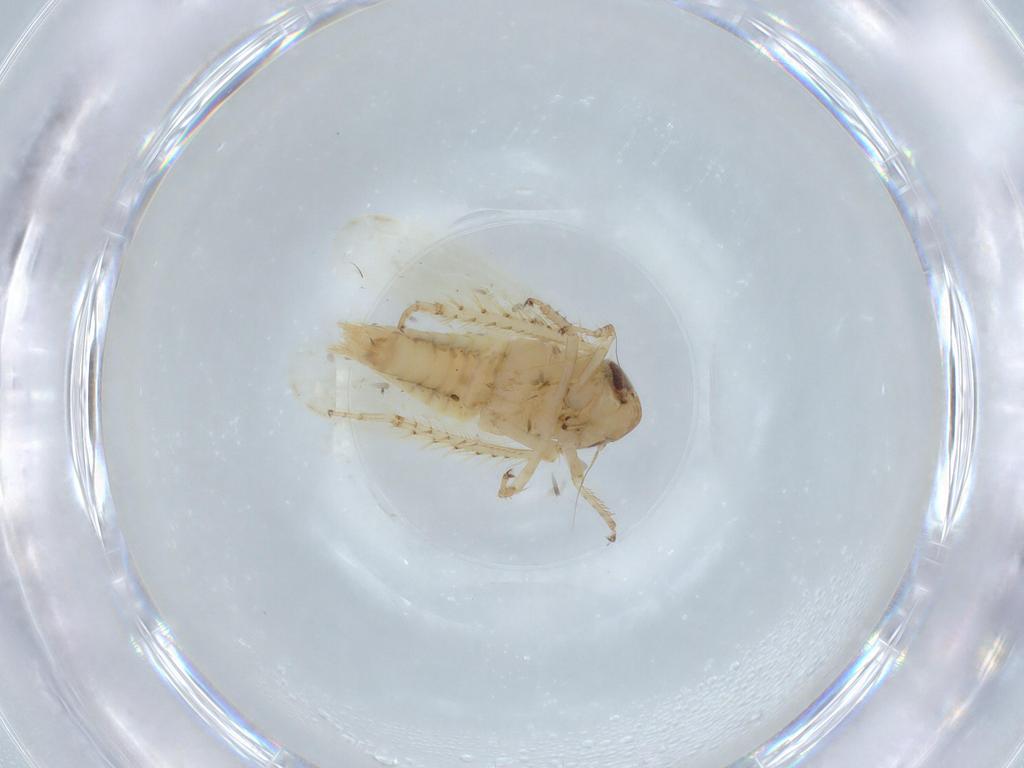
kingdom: Animalia
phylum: Arthropoda
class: Insecta
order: Hemiptera
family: Cicadellidae
